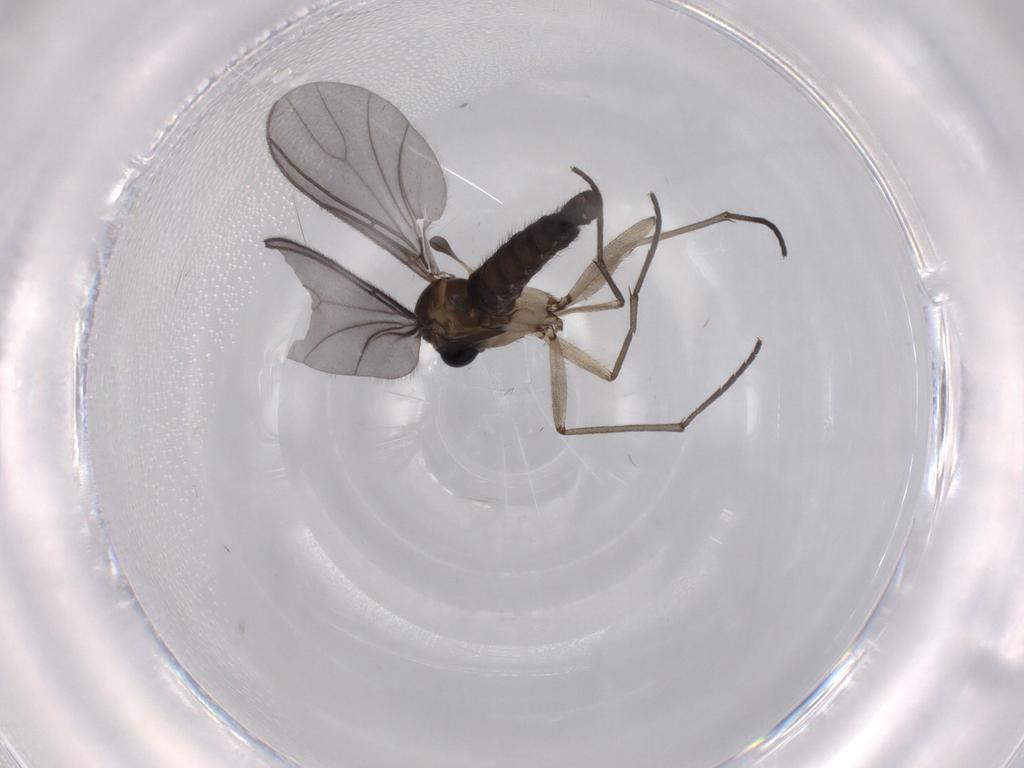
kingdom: Animalia
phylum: Arthropoda
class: Insecta
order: Diptera
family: Sciaridae
